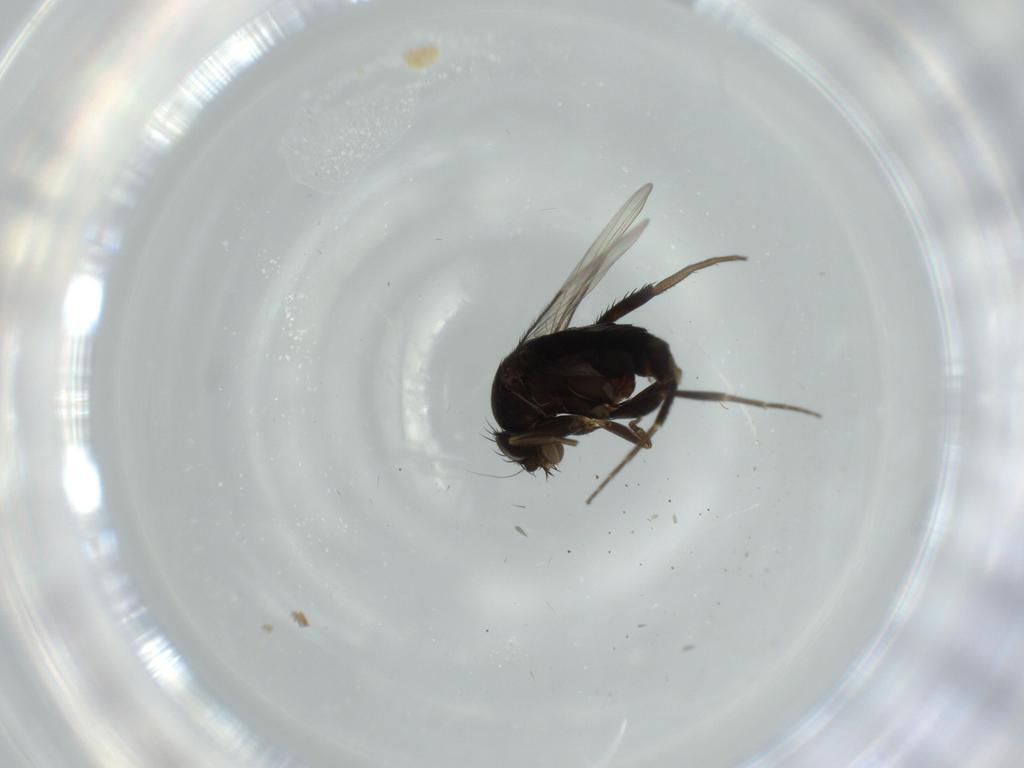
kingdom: Animalia
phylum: Arthropoda
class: Insecta
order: Diptera
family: Phoridae
